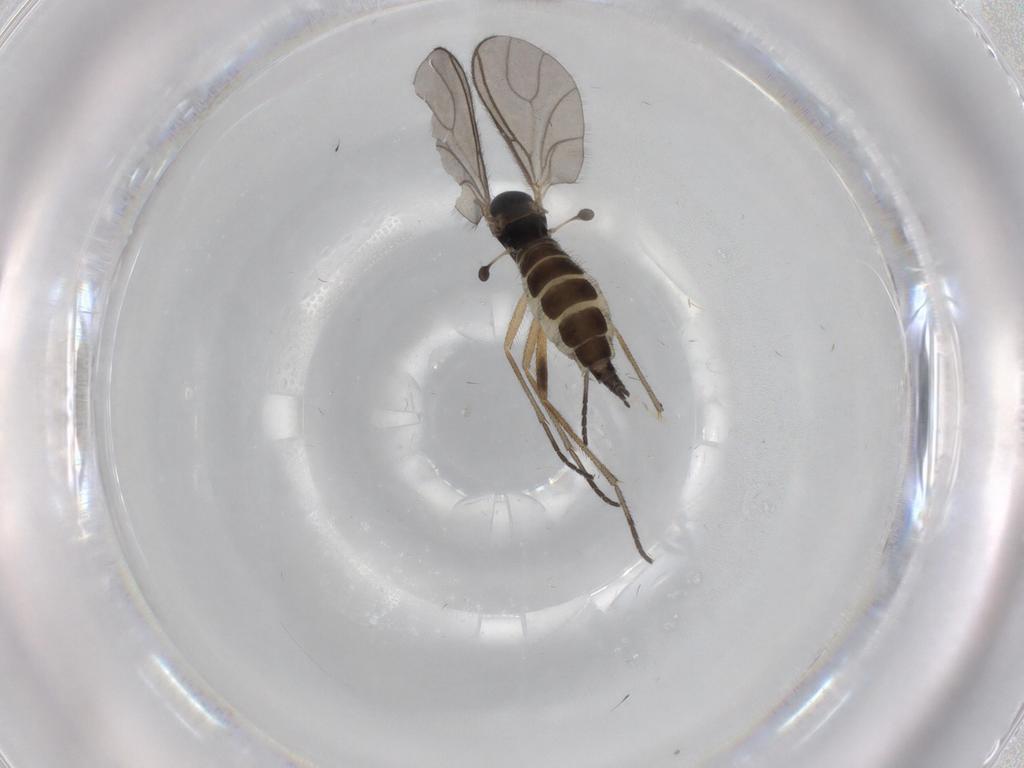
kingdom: Animalia
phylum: Arthropoda
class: Insecta
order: Diptera
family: Sciaridae
